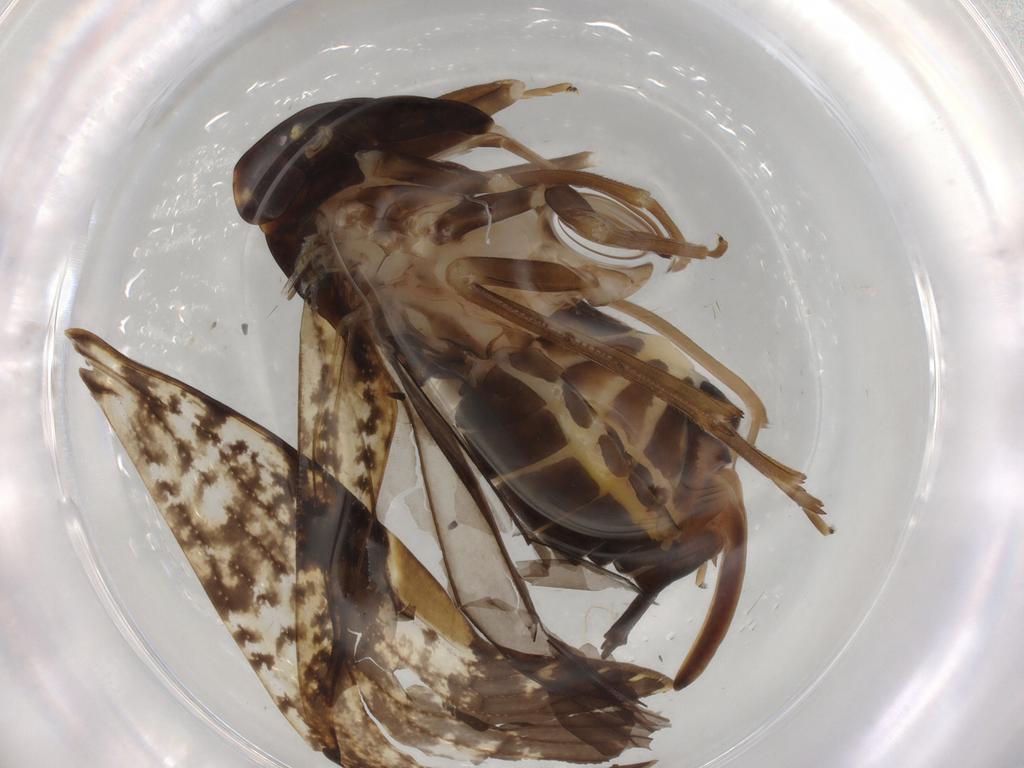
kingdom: Animalia
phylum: Arthropoda
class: Insecta
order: Hemiptera
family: Cixiidae
